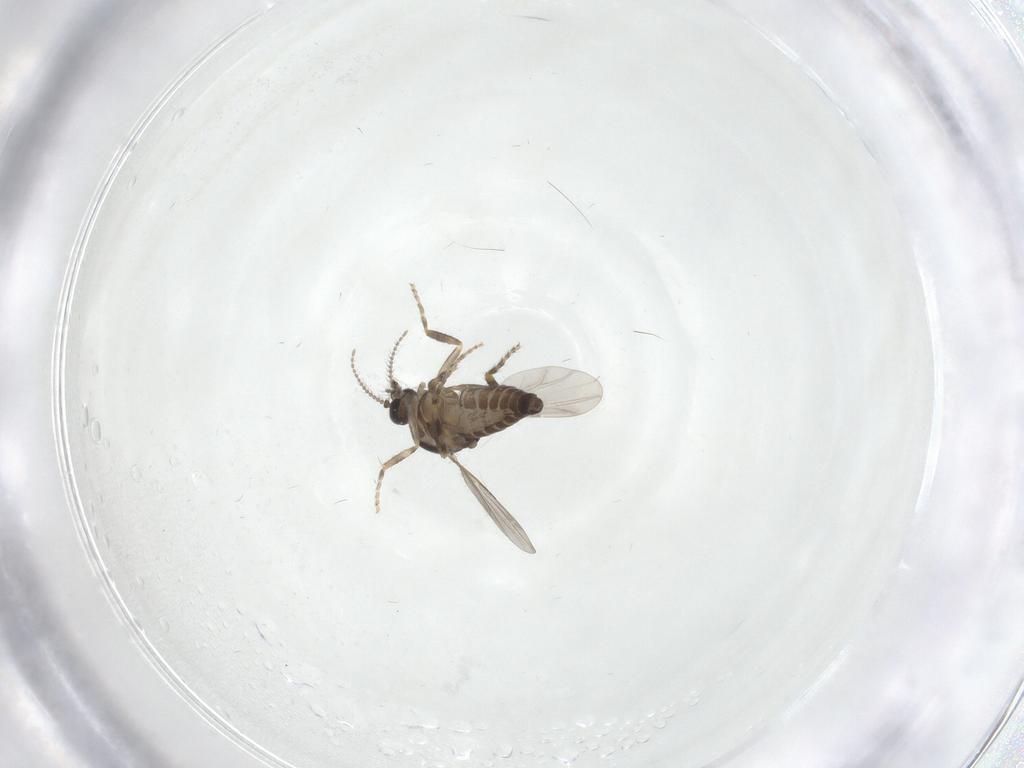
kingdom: Animalia
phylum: Arthropoda
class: Insecta
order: Diptera
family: Ceratopogonidae
